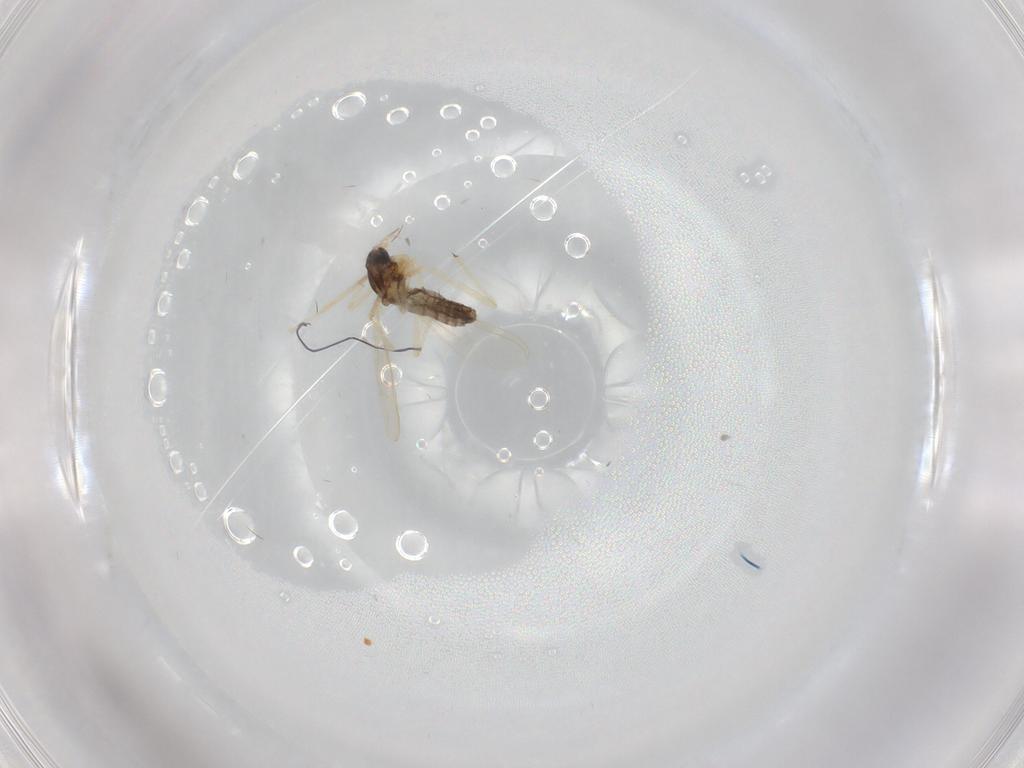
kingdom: Animalia
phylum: Arthropoda
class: Insecta
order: Diptera
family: Chironomidae
